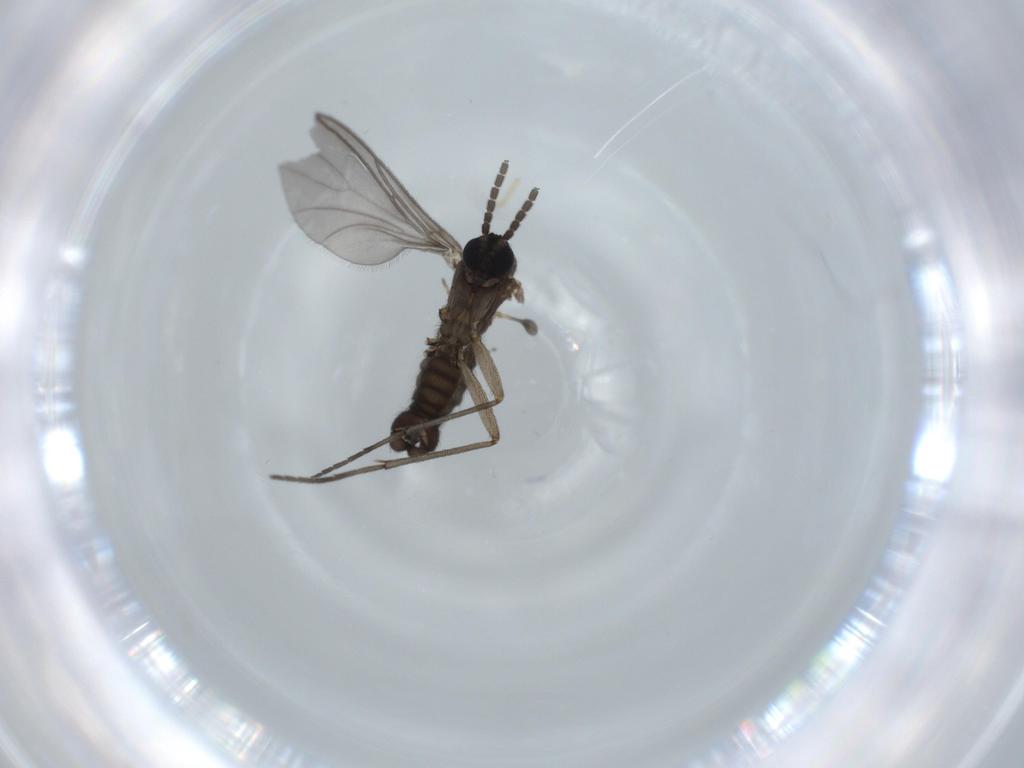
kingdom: Animalia
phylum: Arthropoda
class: Insecta
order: Diptera
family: Sciaridae
